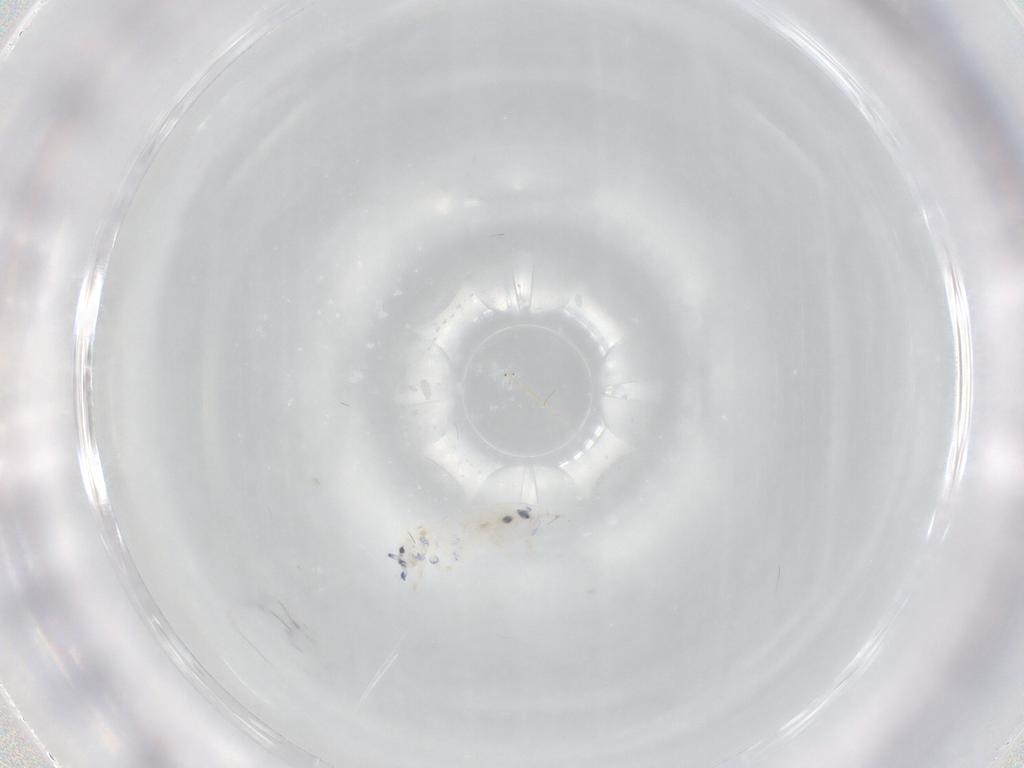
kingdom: Animalia
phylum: Arthropoda
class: Collembola
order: Entomobryomorpha
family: Entomobryidae
